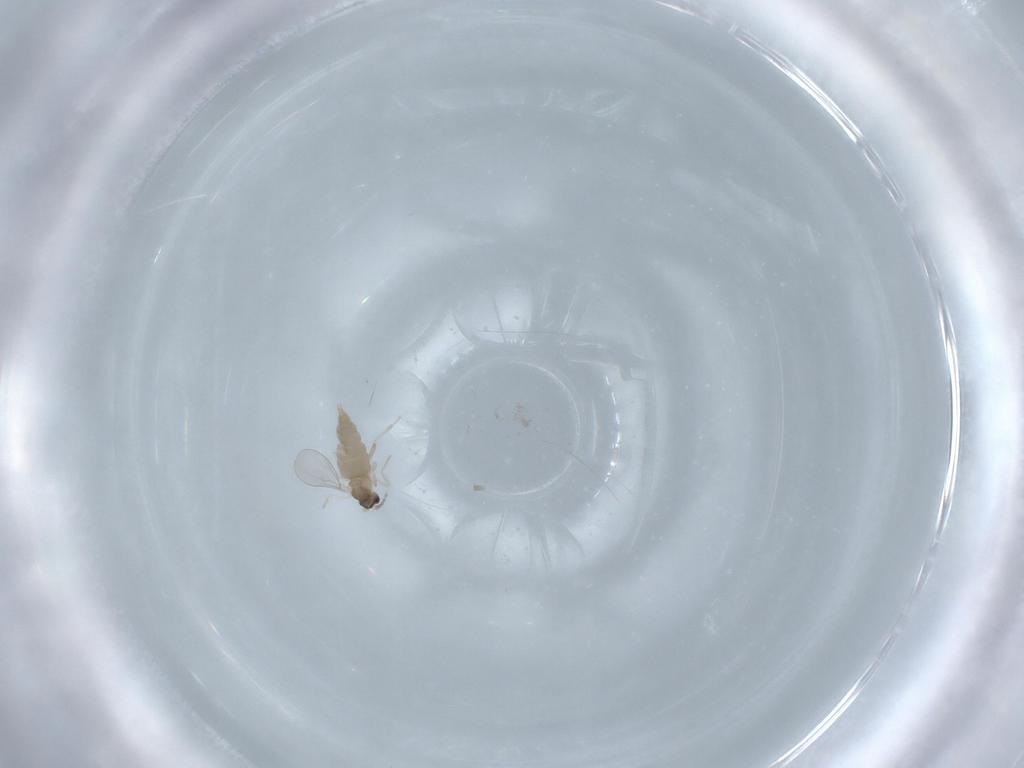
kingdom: Animalia
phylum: Arthropoda
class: Insecta
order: Diptera
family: Cecidomyiidae
